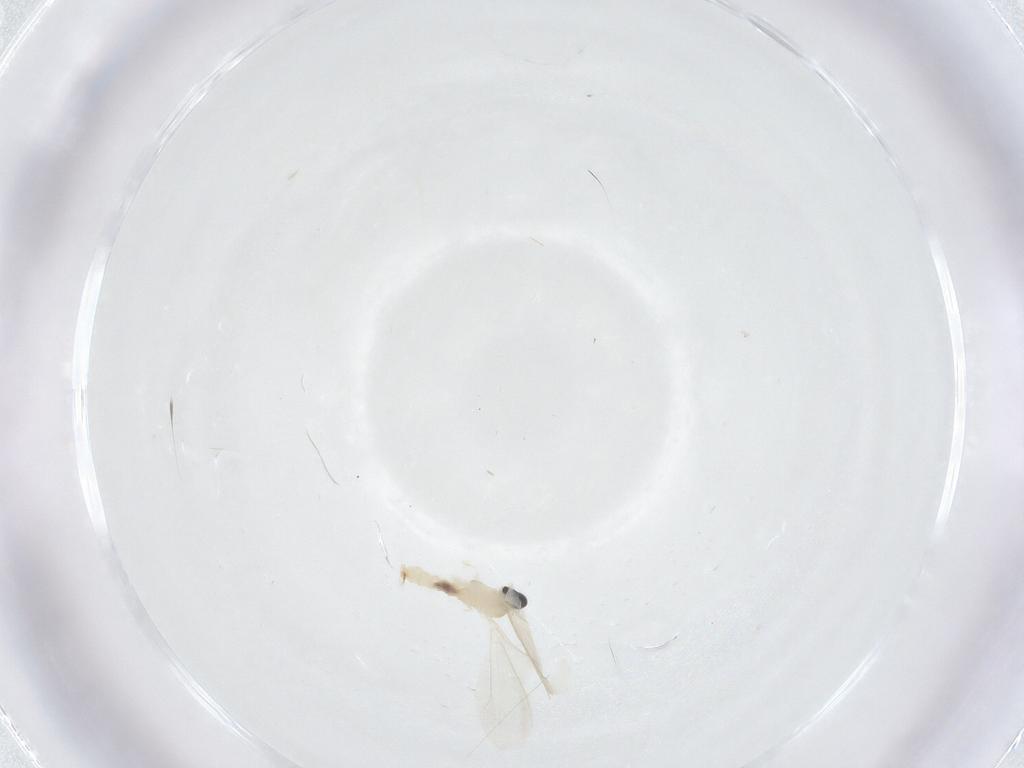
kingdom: Animalia
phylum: Arthropoda
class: Insecta
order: Diptera
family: Cecidomyiidae
